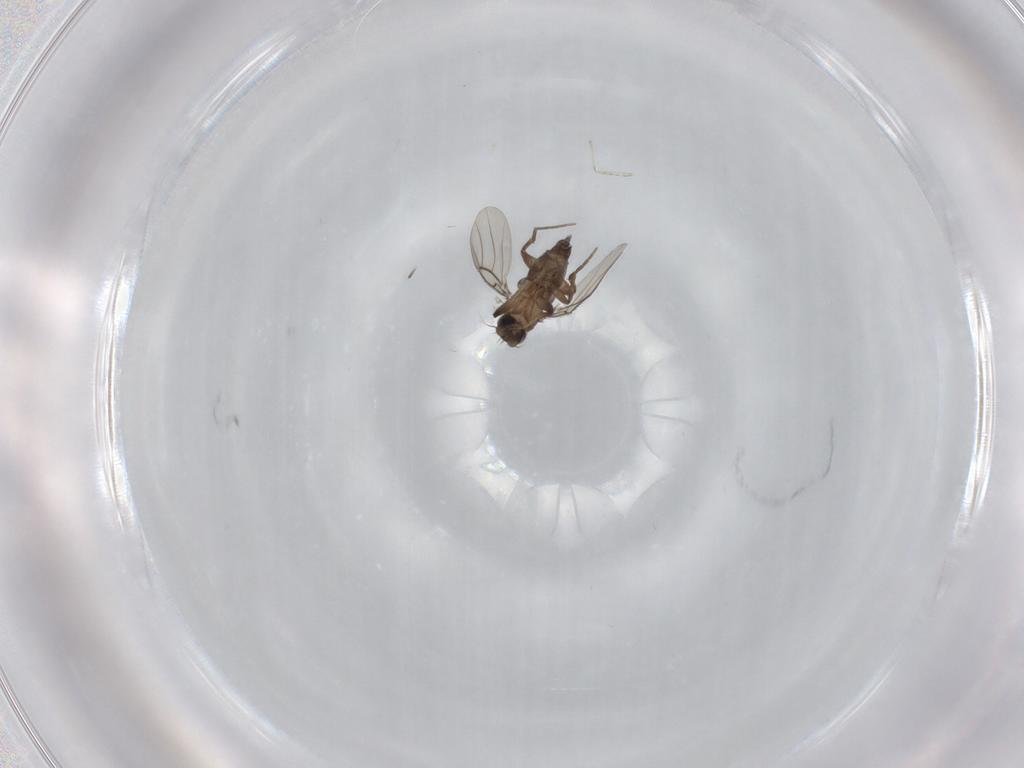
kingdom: Animalia
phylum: Arthropoda
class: Insecta
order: Diptera
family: Phoridae
